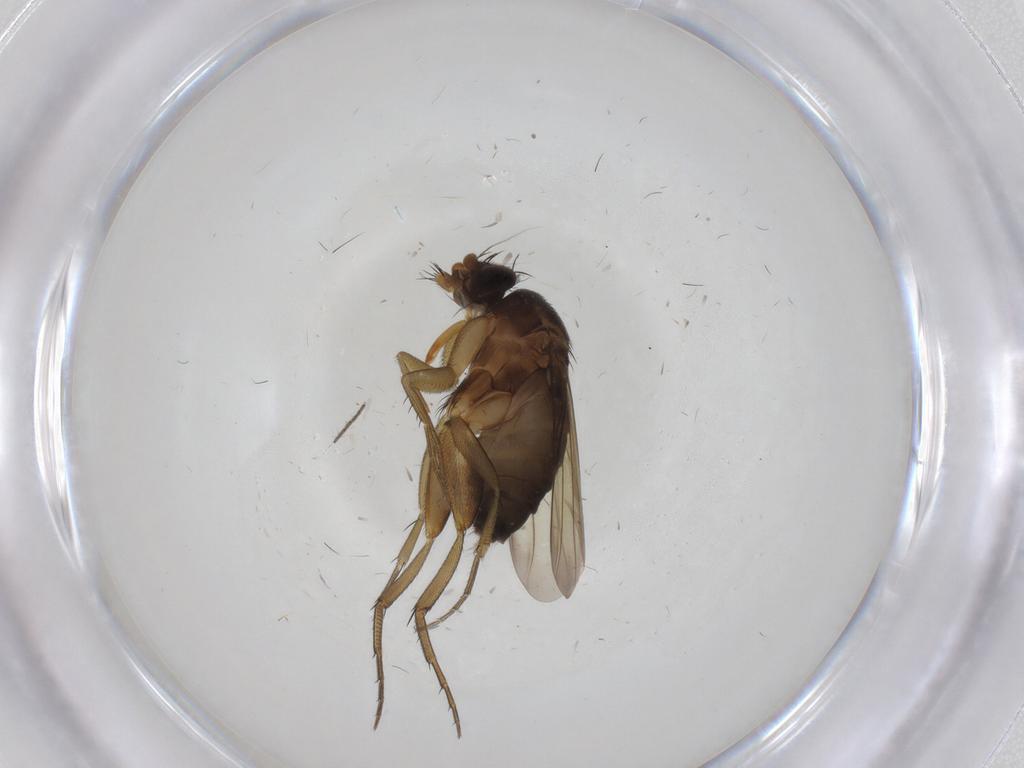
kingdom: Animalia
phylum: Arthropoda
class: Insecta
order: Diptera
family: Phoridae
